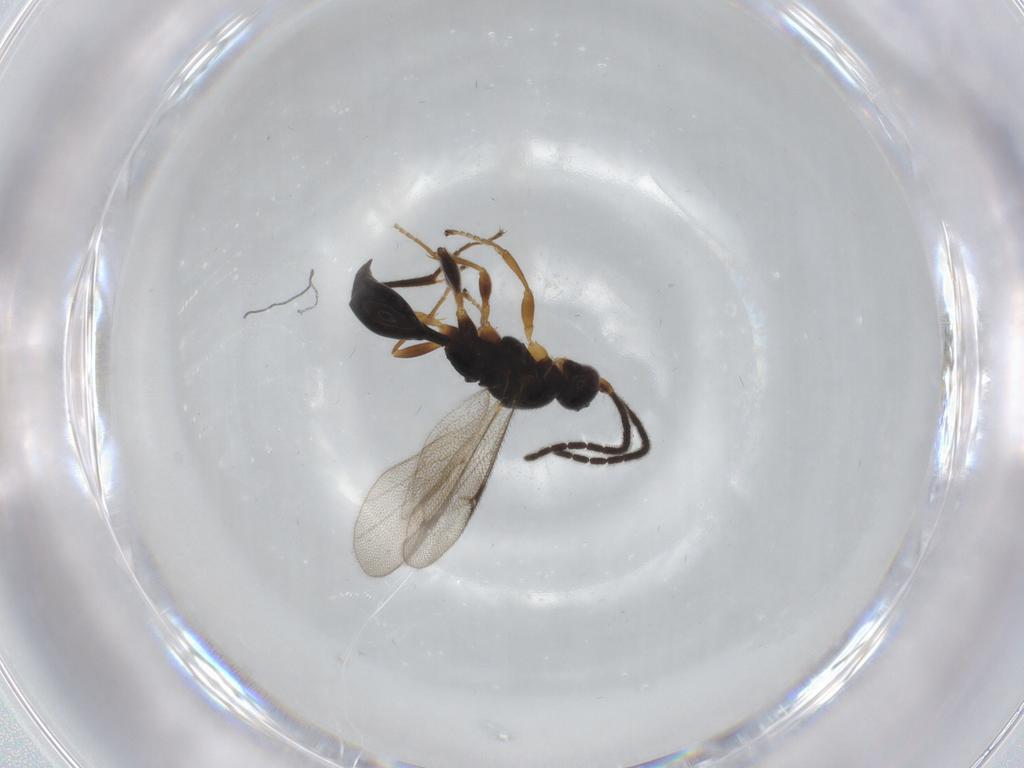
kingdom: Animalia
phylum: Arthropoda
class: Insecta
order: Hymenoptera
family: Proctotrupidae
